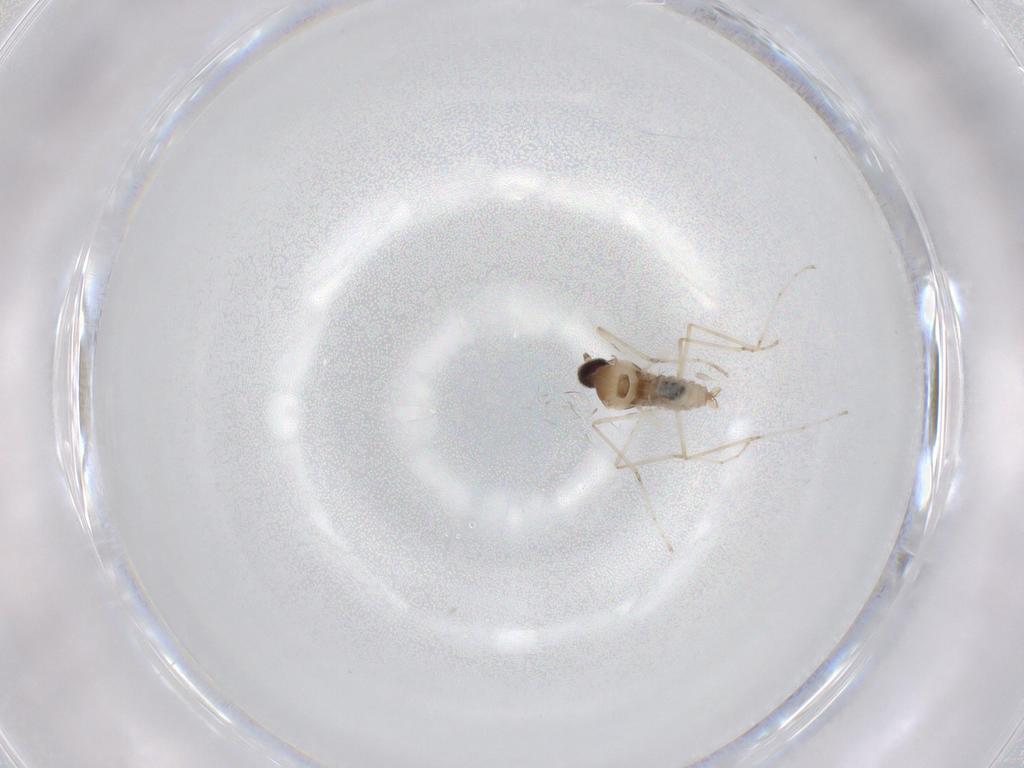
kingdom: Animalia
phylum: Arthropoda
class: Insecta
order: Diptera
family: Cecidomyiidae
